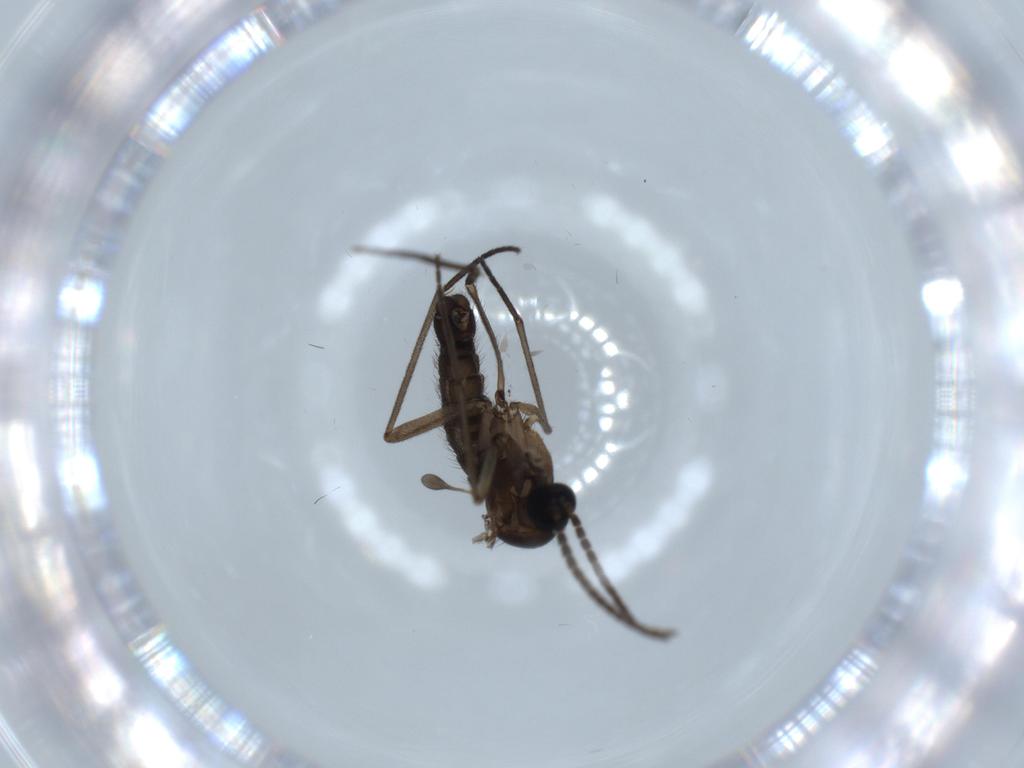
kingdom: Animalia
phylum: Arthropoda
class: Insecta
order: Diptera
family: Sciaridae
